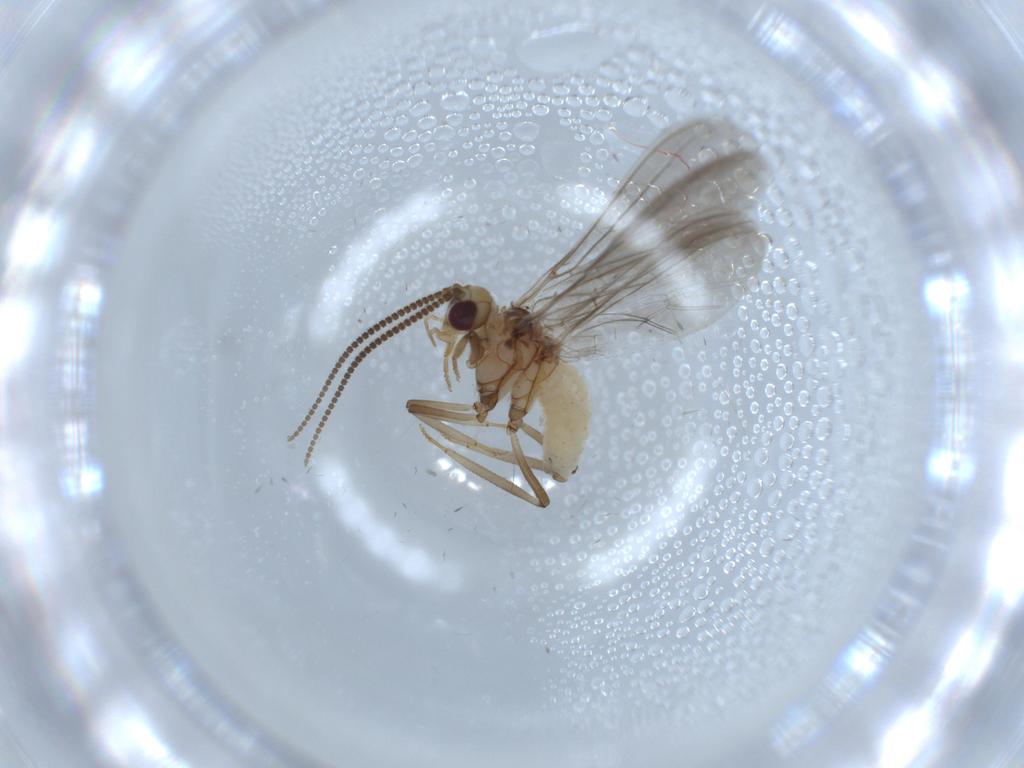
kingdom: Animalia
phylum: Arthropoda
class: Insecta
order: Neuroptera
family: Coniopterygidae
